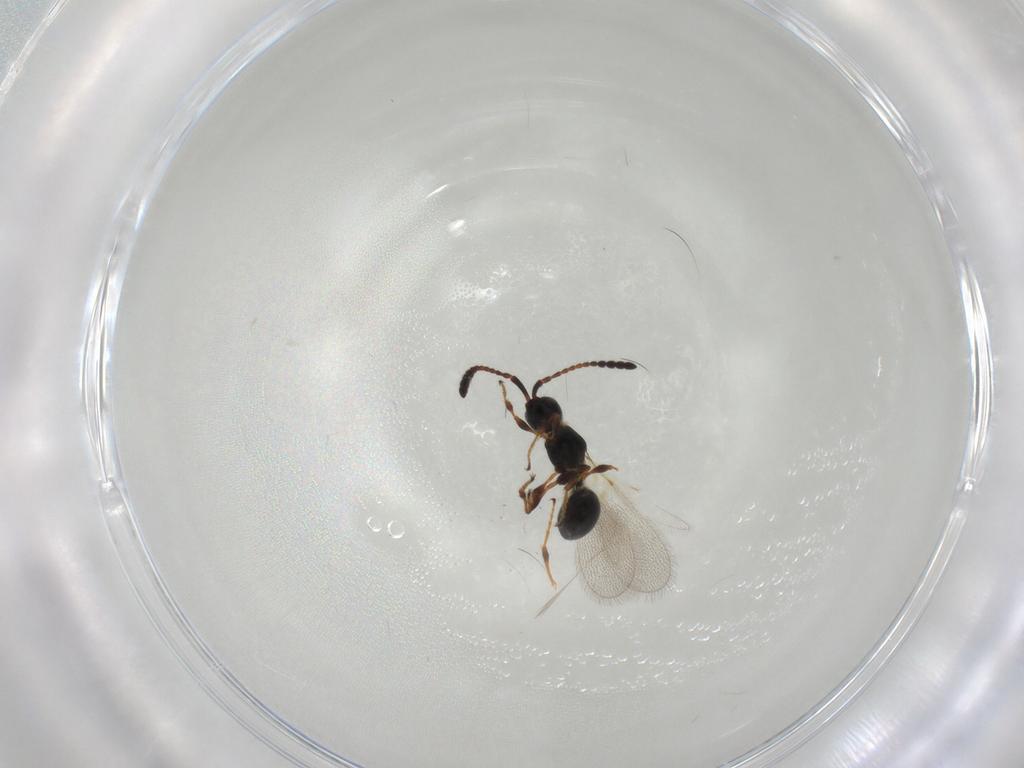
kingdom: Animalia
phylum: Arthropoda
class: Insecta
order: Hymenoptera
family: Diapriidae
